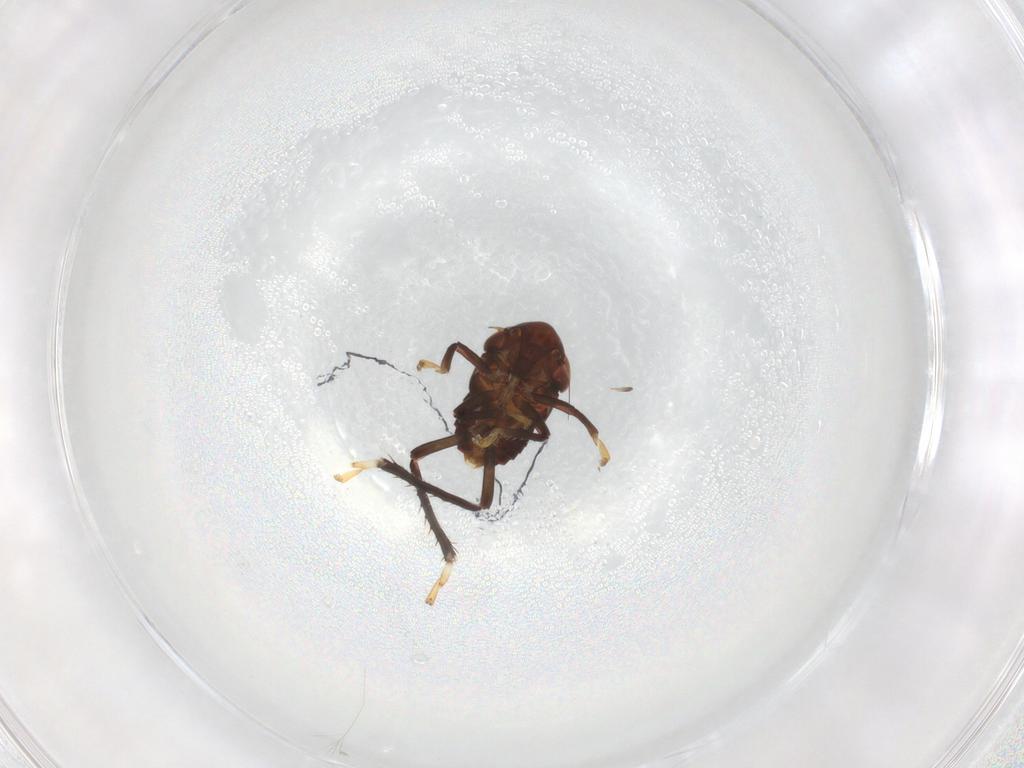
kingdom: Animalia
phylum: Arthropoda
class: Insecta
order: Hemiptera
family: Cicadellidae
